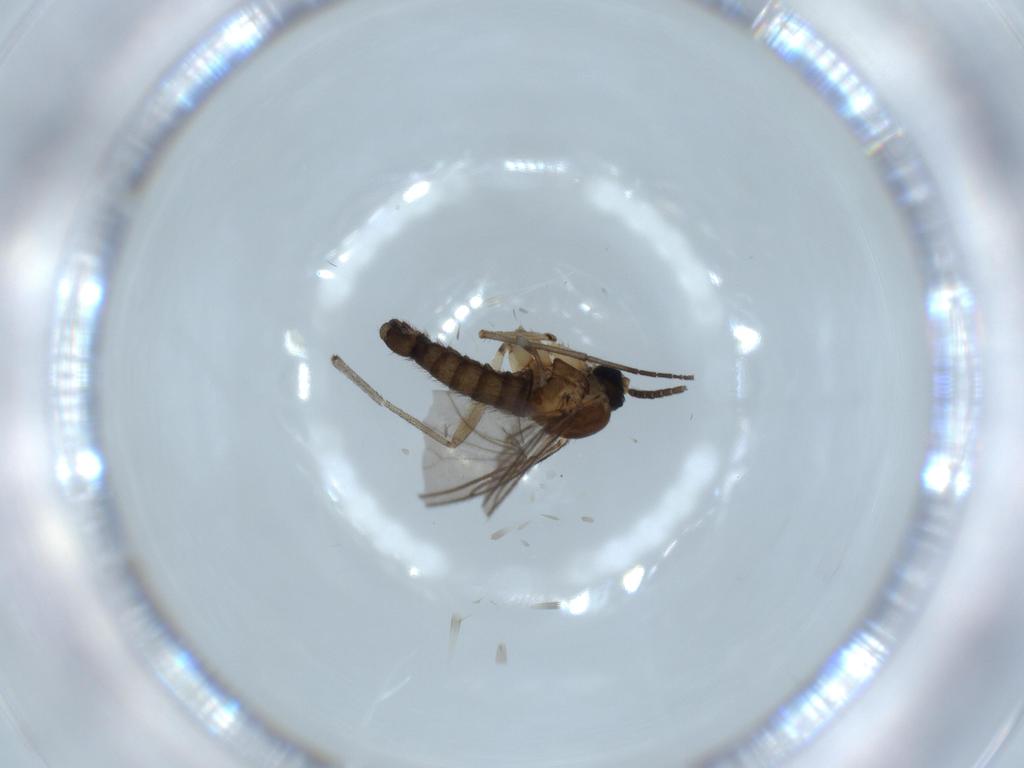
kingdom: Animalia
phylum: Arthropoda
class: Insecta
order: Diptera
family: Sciaridae
